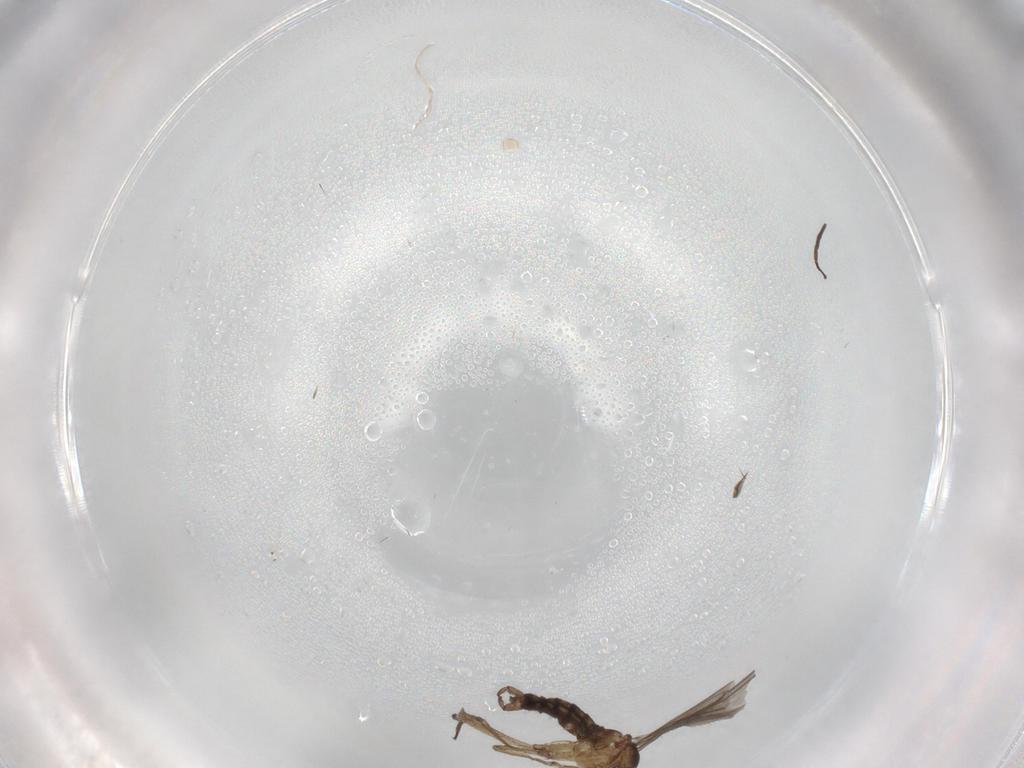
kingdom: Animalia
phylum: Arthropoda
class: Insecta
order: Diptera
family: Sciaridae
